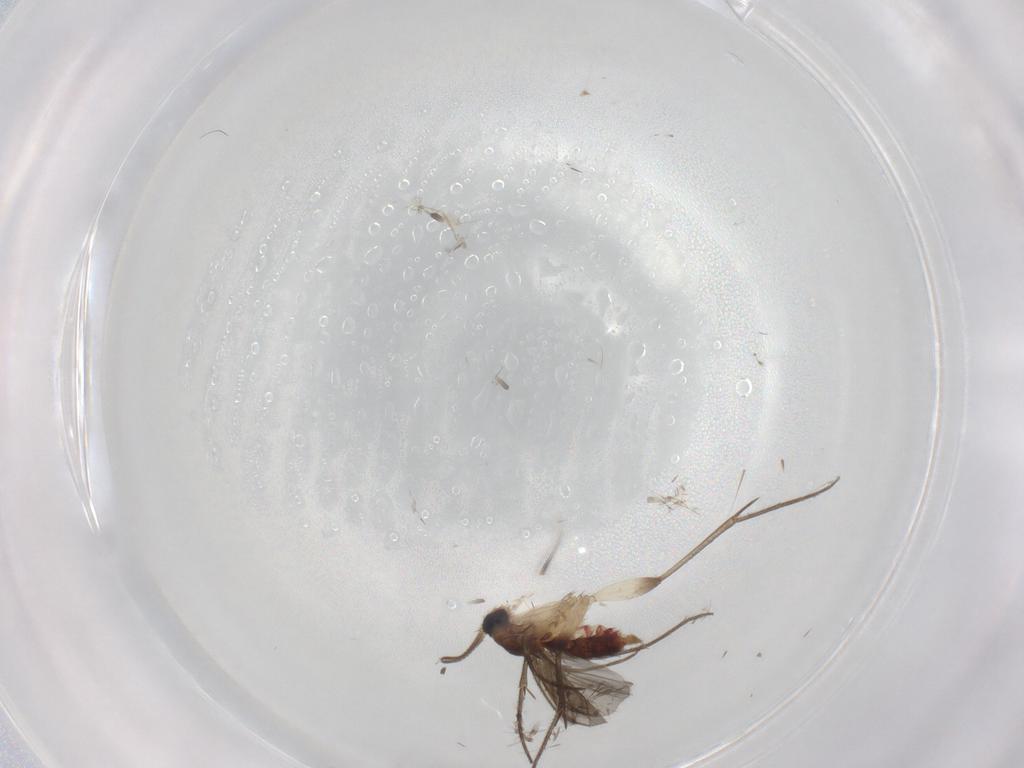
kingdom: Animalia
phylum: Arthropoda
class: Insecta
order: Diptera
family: Mycetophilidae
